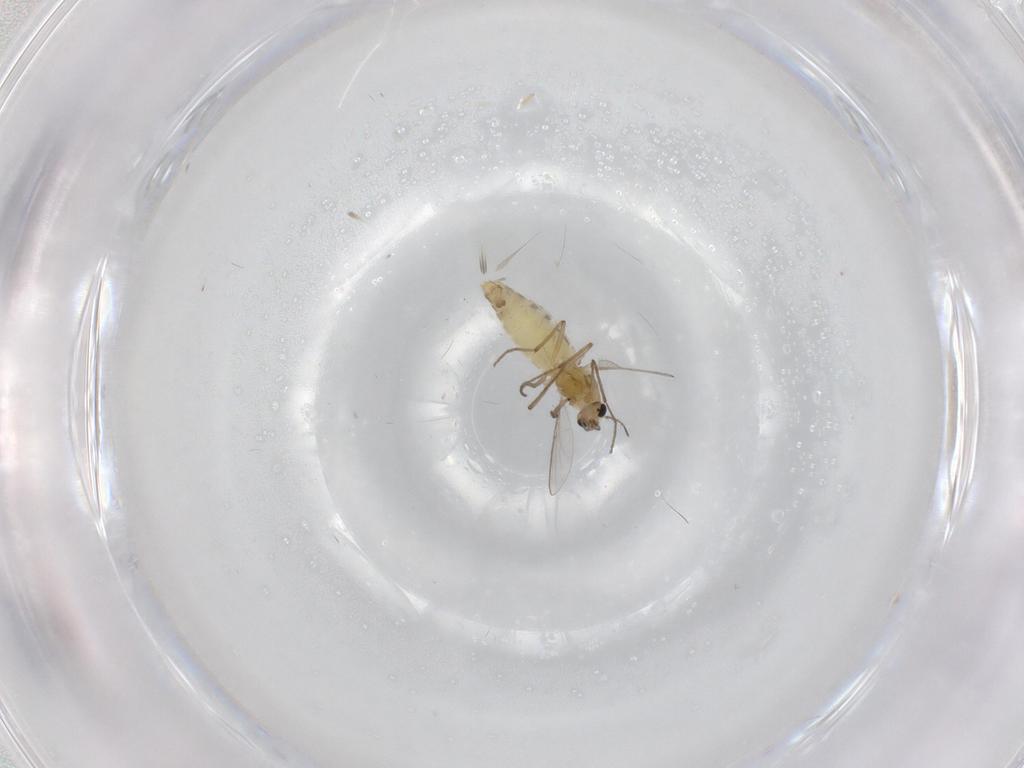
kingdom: Animalia
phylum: Arthropoda
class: Insecta
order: Diptera
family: Chironomidae
